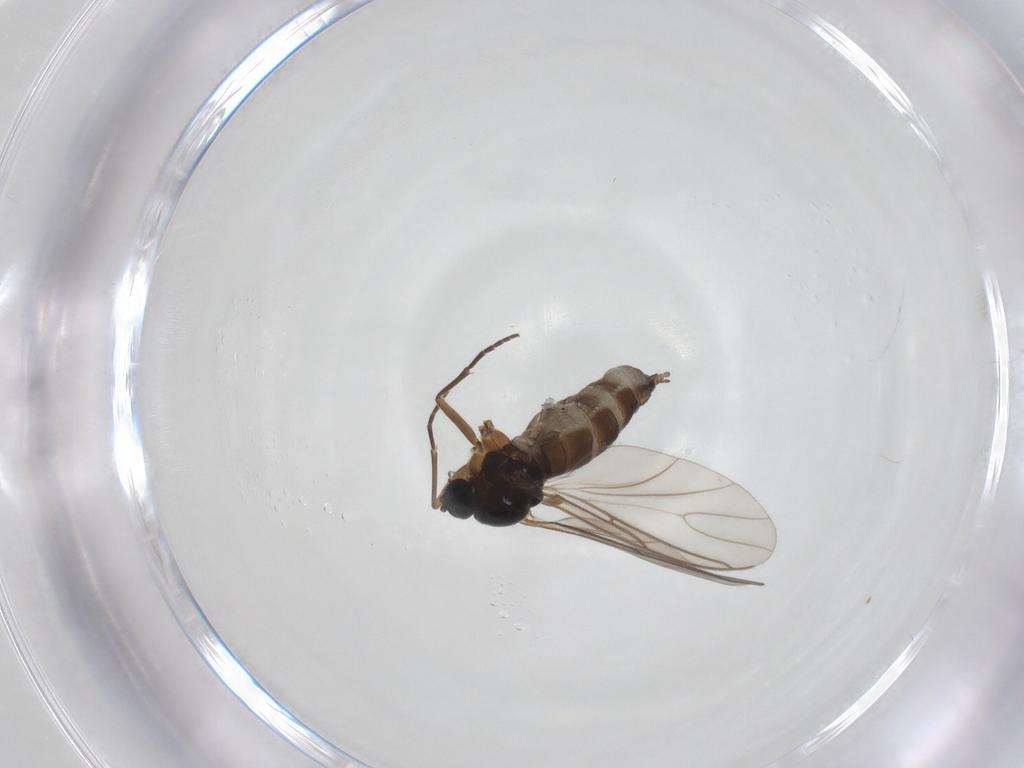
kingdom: Animalia
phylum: Arthropoda
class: Insecta
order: Diptera
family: Sciaridae
